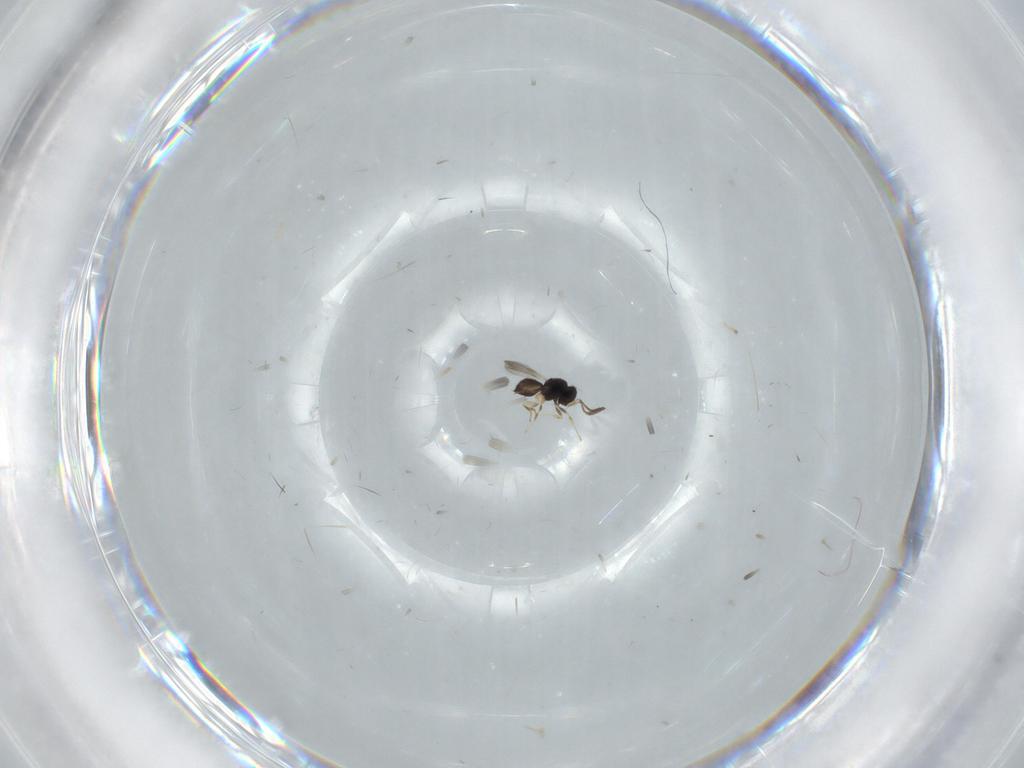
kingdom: Animalia
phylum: Arthropoda
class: Insecta
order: Hymenoptera
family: Scelionidae
